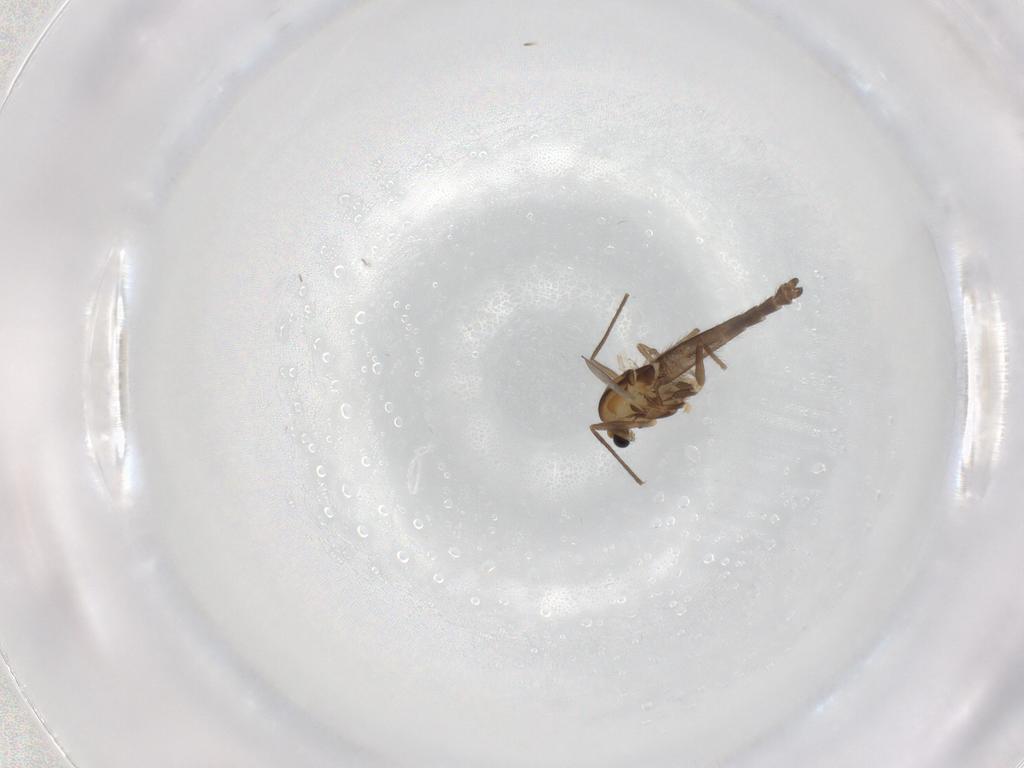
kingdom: Animalia
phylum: Arthropoda
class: Insecta
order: Diptera
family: Chironomidae
